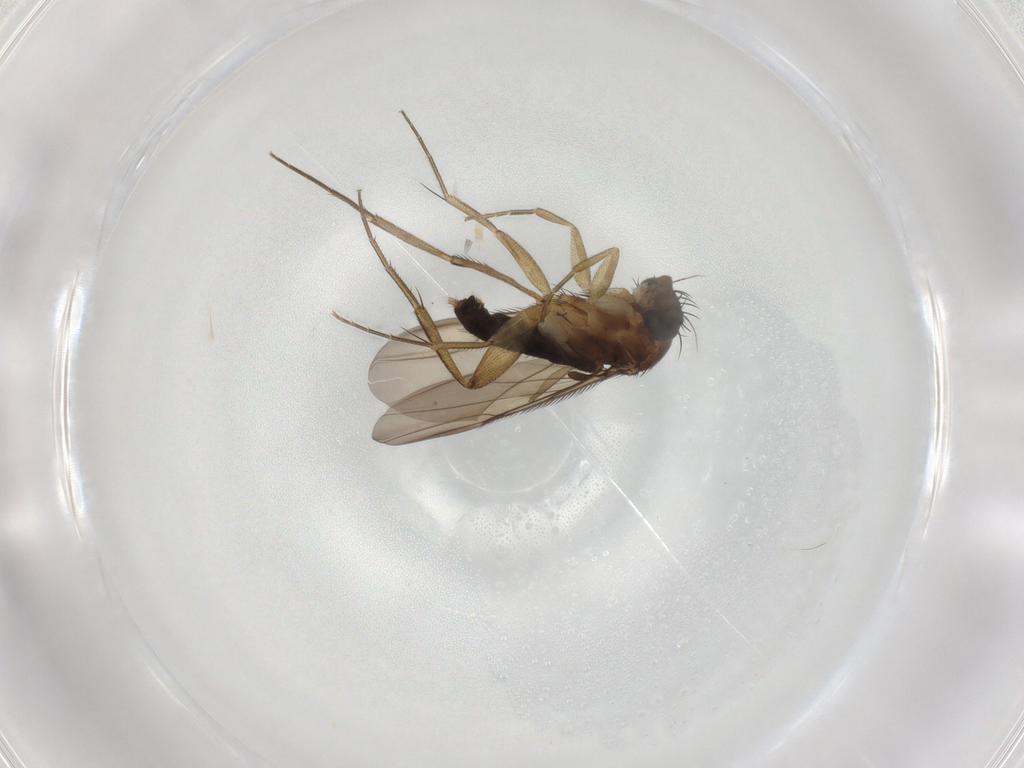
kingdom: Animalia
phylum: Arthropoda
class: Insecta
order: Diptera
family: Phoridae
